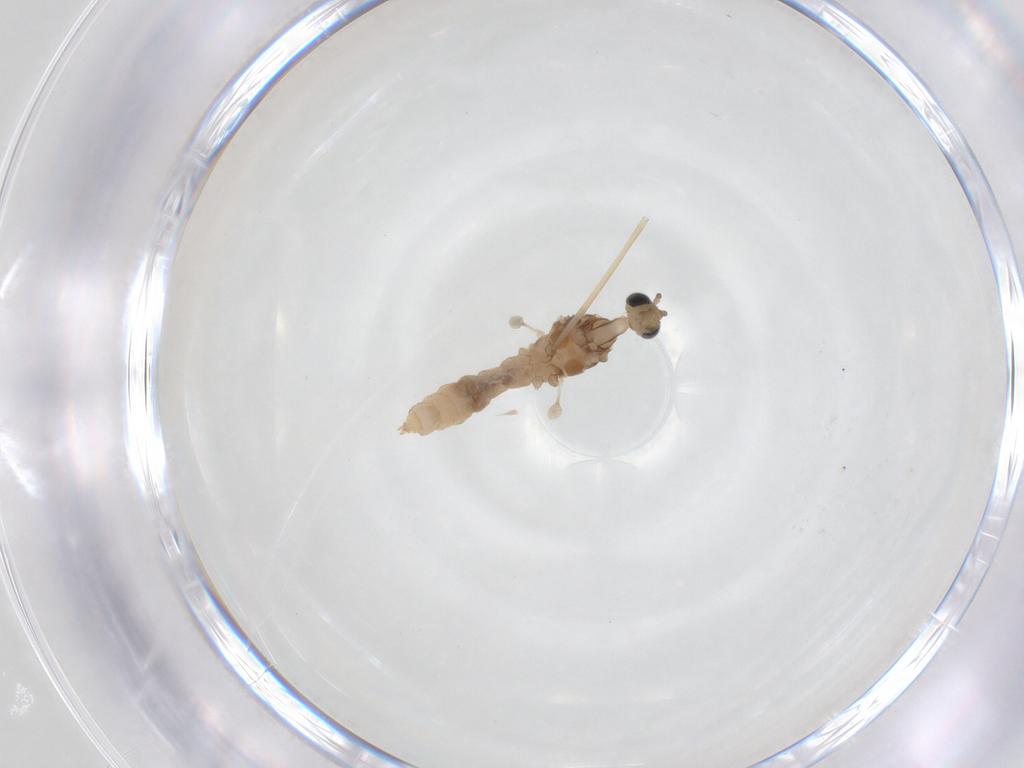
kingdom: Animalia
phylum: Arthropoda
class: Insecta
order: Diptera
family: Cecidomyiidae
